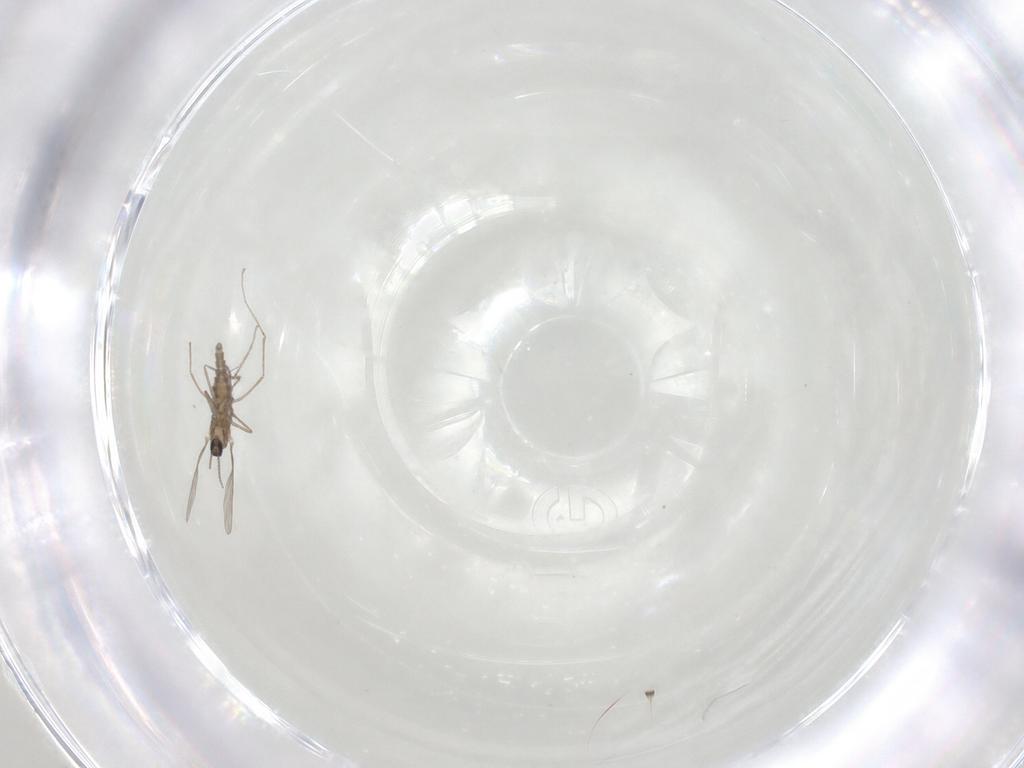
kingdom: Animalia
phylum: Arthropoda
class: Insecta
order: Diptera
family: Cecidomyiidae
